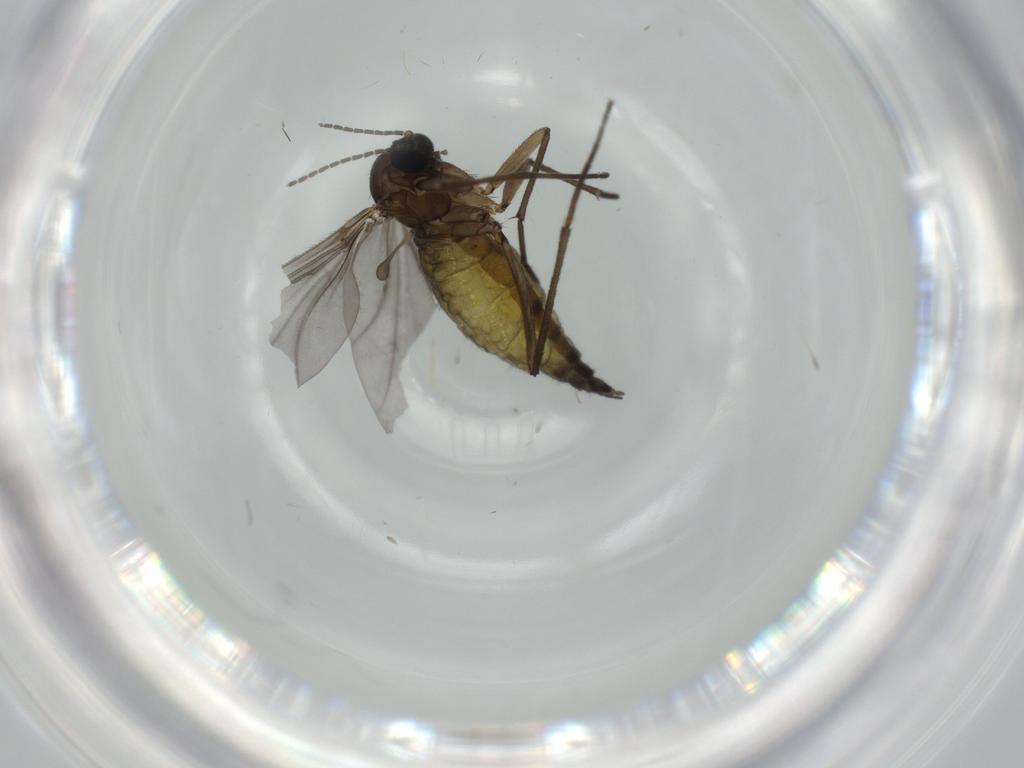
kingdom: Animalia
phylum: Arthropoda
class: Insecta
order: Diptera
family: Sciaridae
